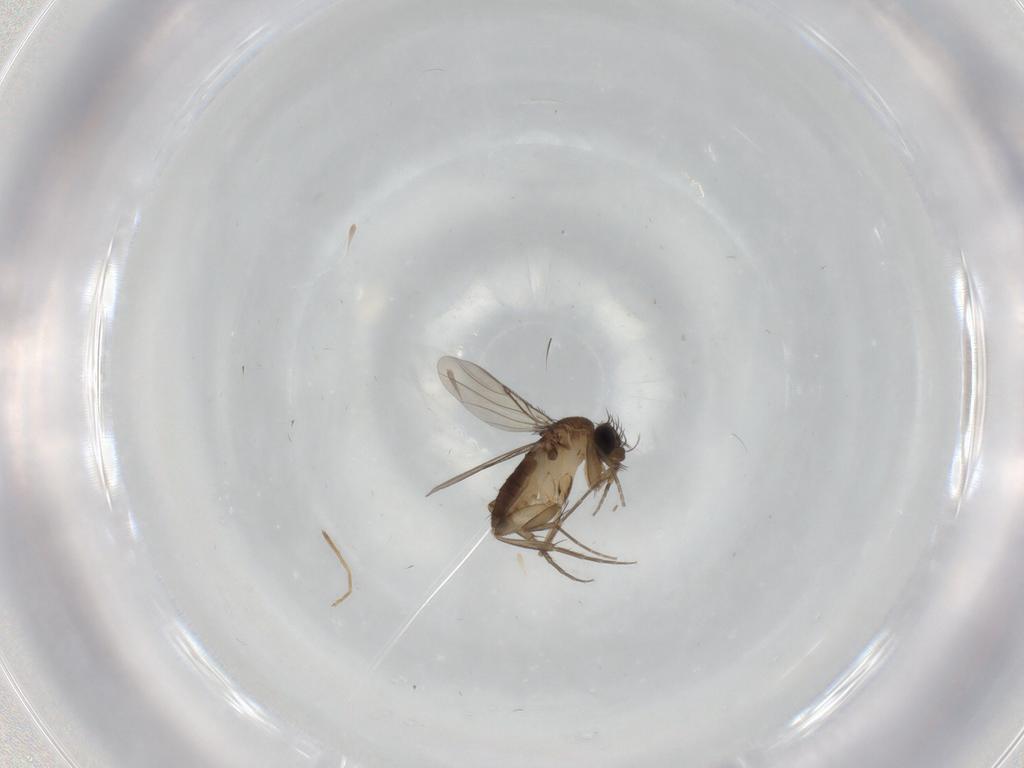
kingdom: Animalia
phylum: Arthropoda
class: Insecta
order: Diptera
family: Phoridae
